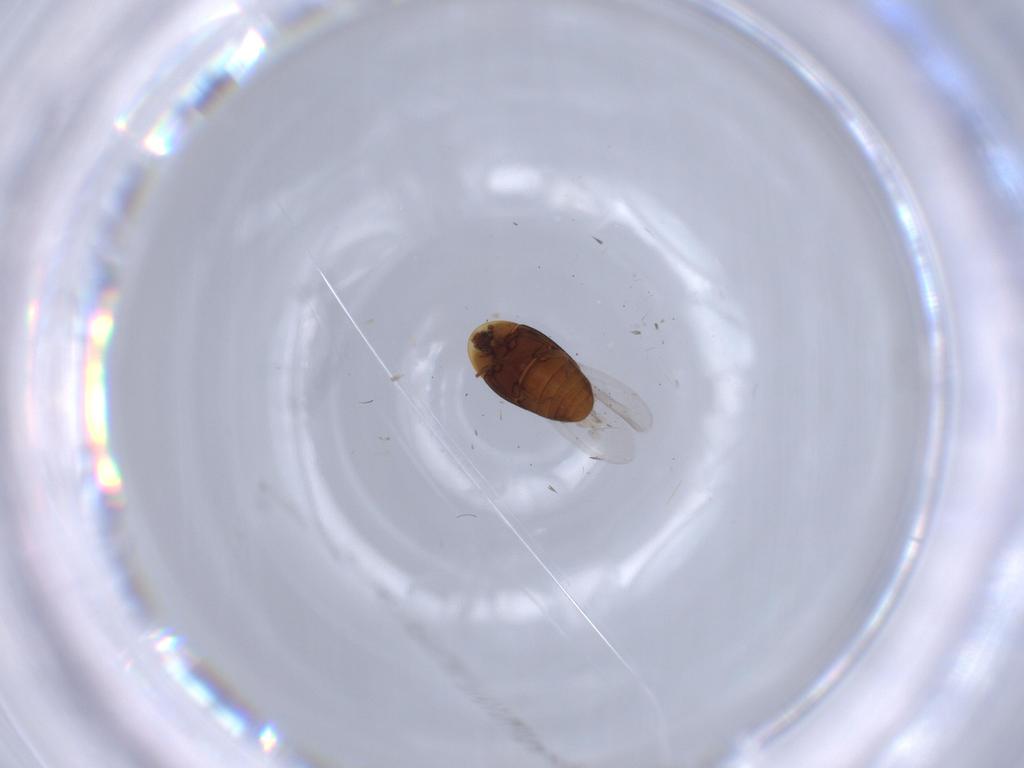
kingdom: Animalia
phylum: Arthropoda
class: Insecta
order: Coleoptera
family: Corylophidae
